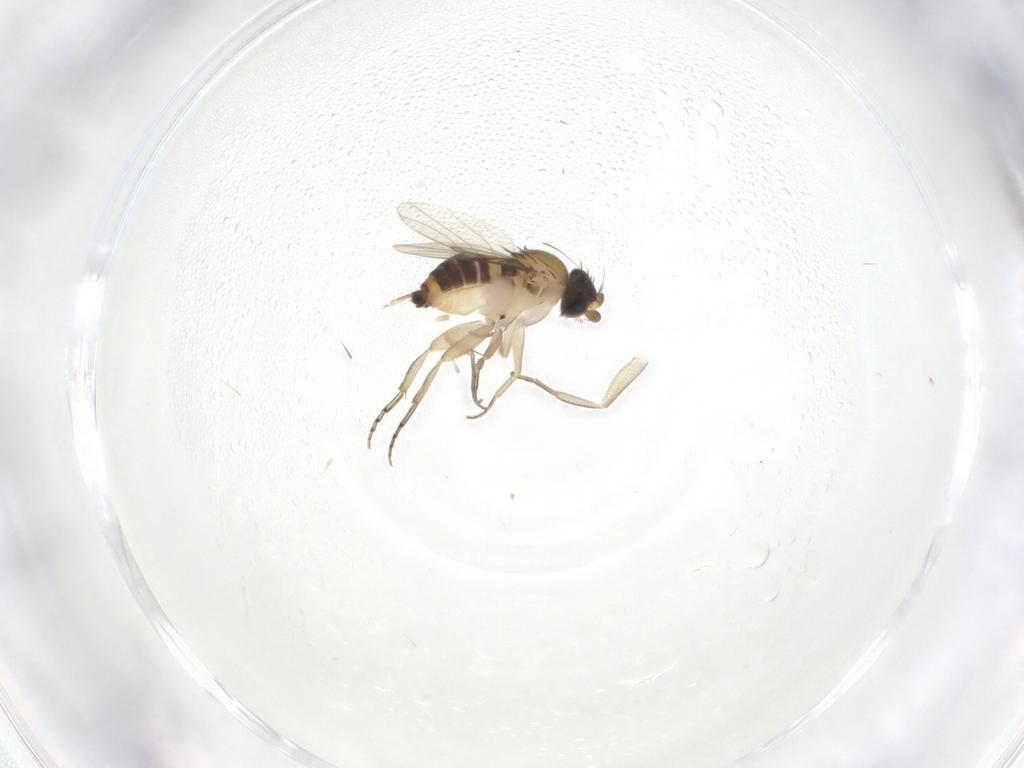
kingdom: Animalia
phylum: Arthropoda
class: Insecta
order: Diptera
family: Phoridae
